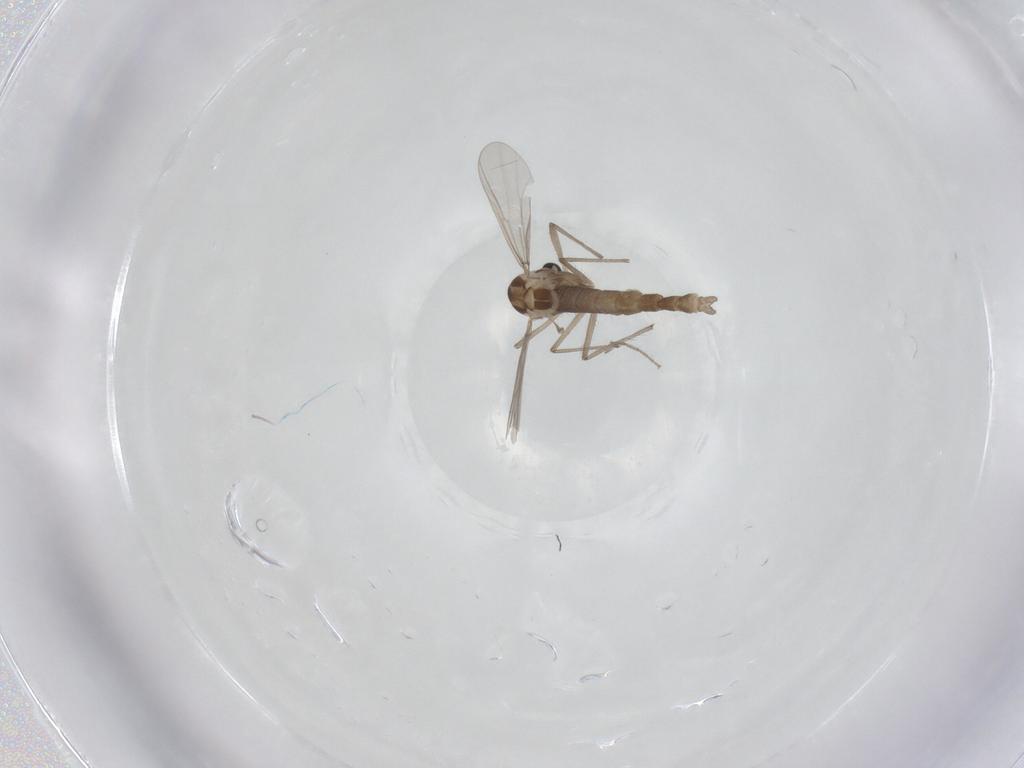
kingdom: Animalia
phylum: Arthropoda
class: Insecta
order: Diptera
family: Chironomidae
